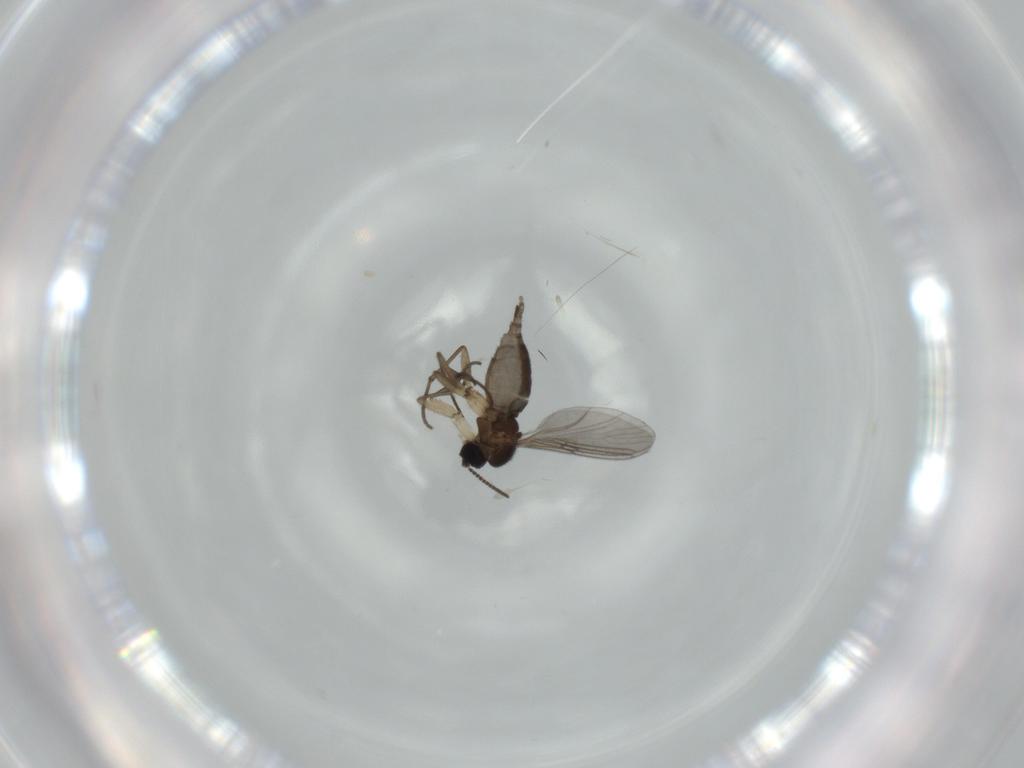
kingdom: Animalia
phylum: Arthropoda
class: Insecta
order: Diptera
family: Sciaridae
